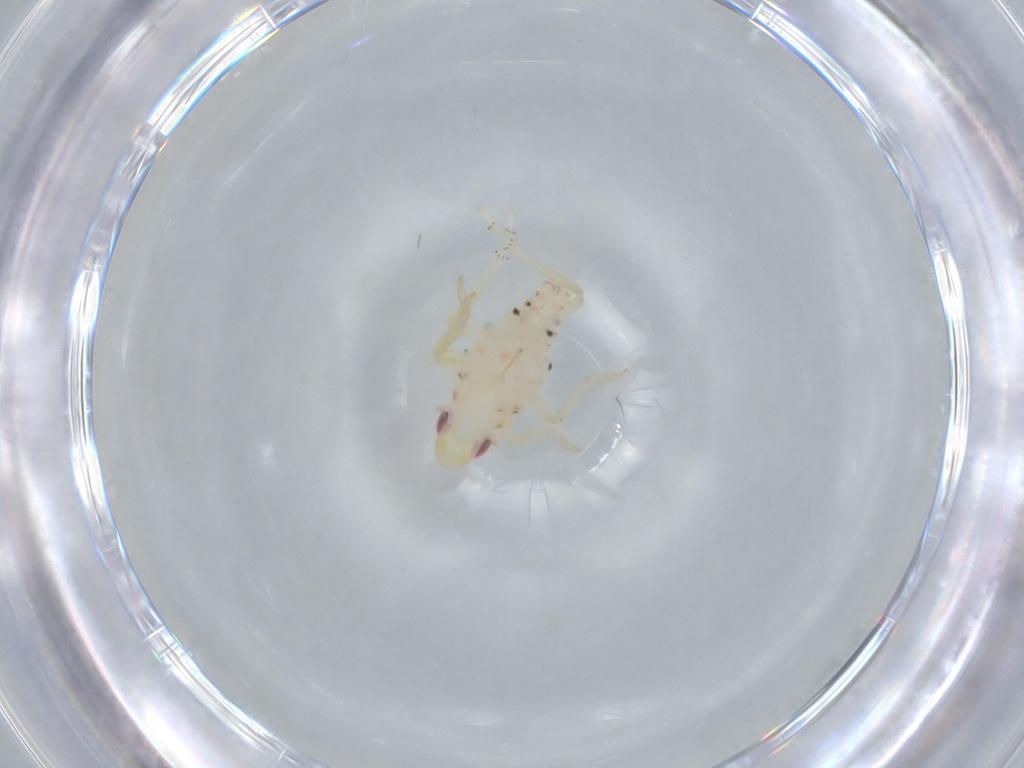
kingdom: Animalia
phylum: Arthropoda
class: Insecta
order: Hemiptera
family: Tropiduchidae
